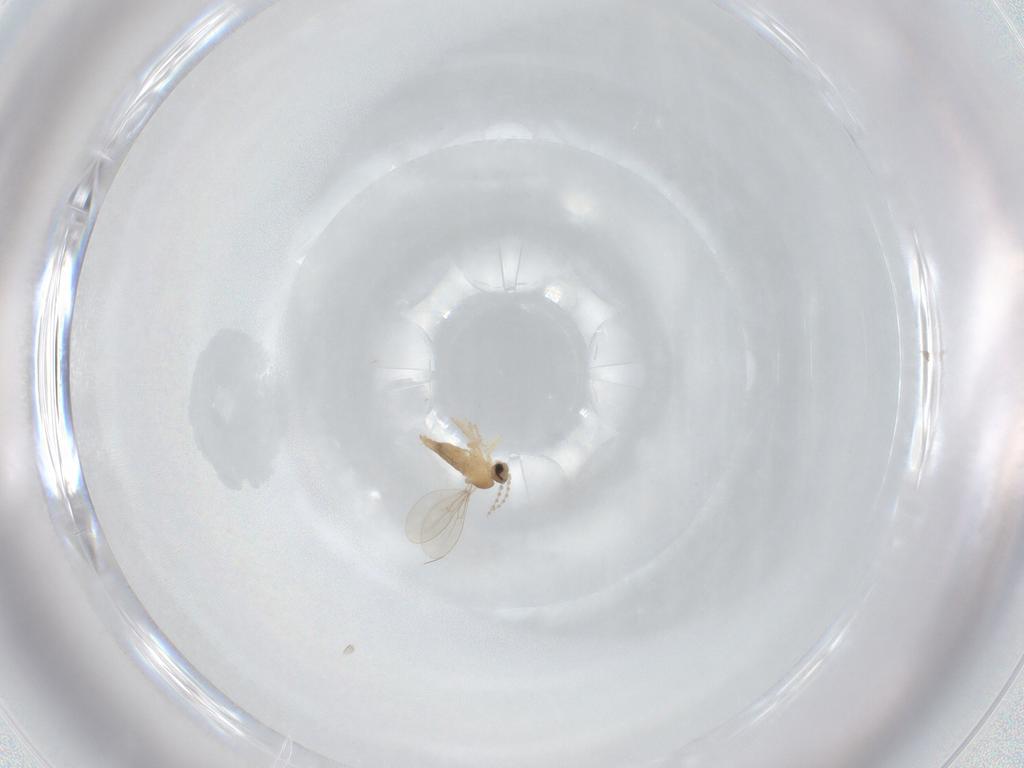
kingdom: Animalia
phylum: Arthropoda
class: Insecta
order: Diptera
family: Cecidomyiidae
